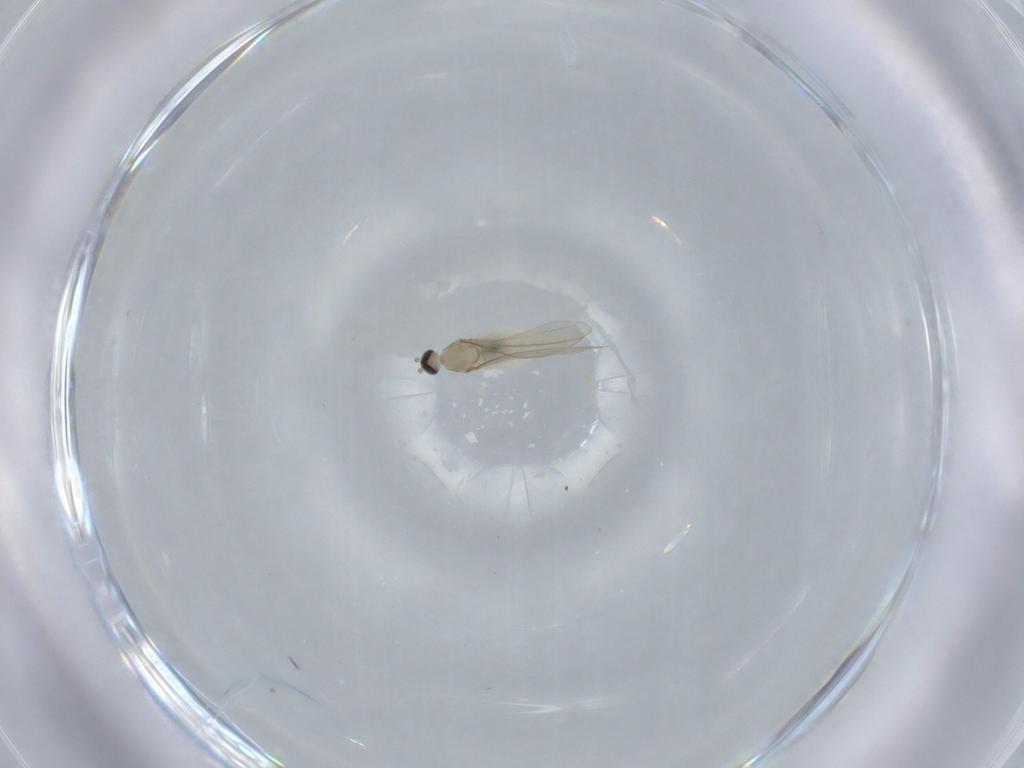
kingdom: Animalia
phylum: Arthropoda
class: Insecta
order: Diptera
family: Cecidomyiidae
